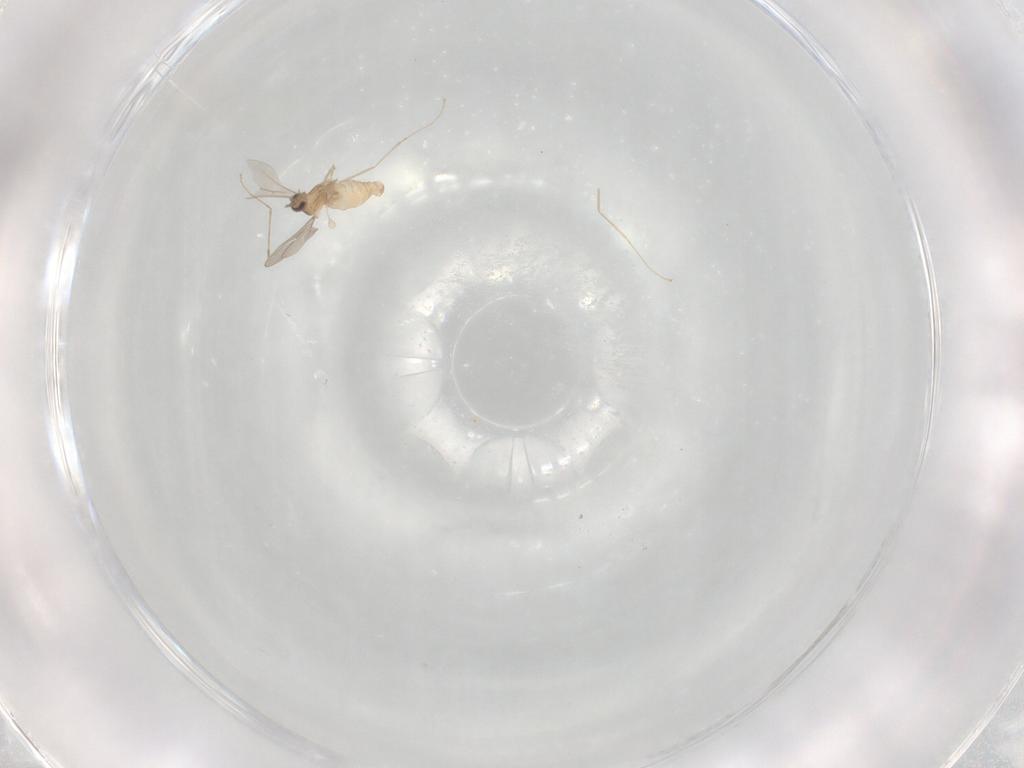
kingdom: Animalia
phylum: Arthropoda
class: Insecta
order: Diptera
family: Cecidomyiidae
